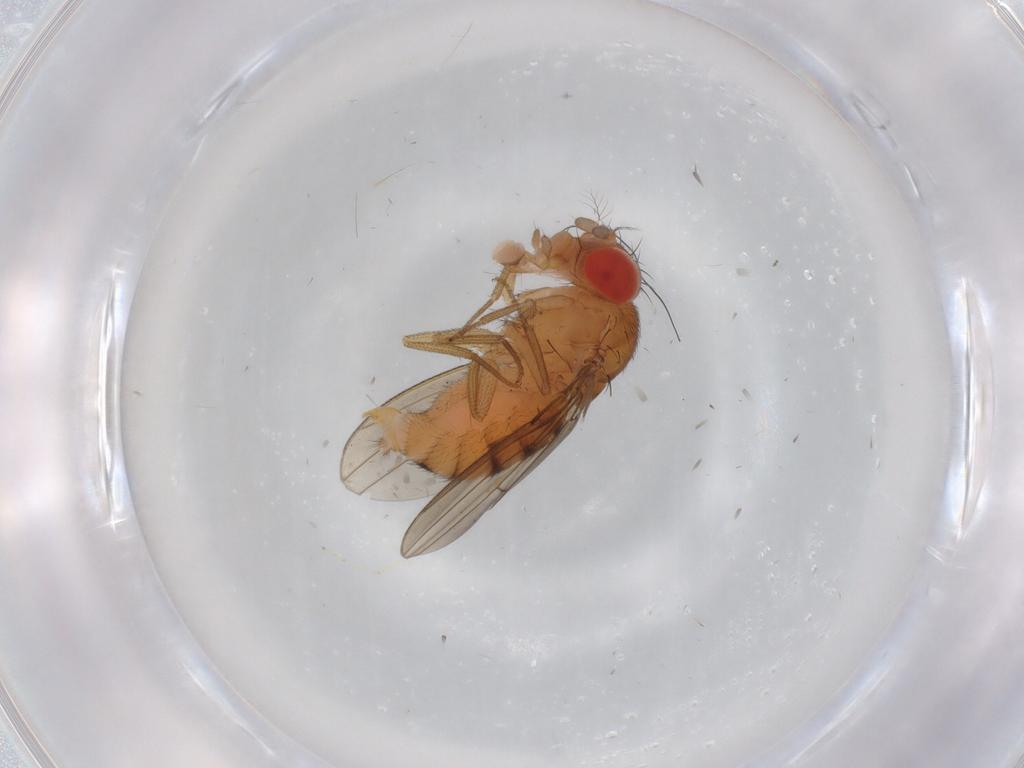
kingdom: Animalia
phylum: Arthropoda
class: Insecta
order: Diptera
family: Drosophilidae
